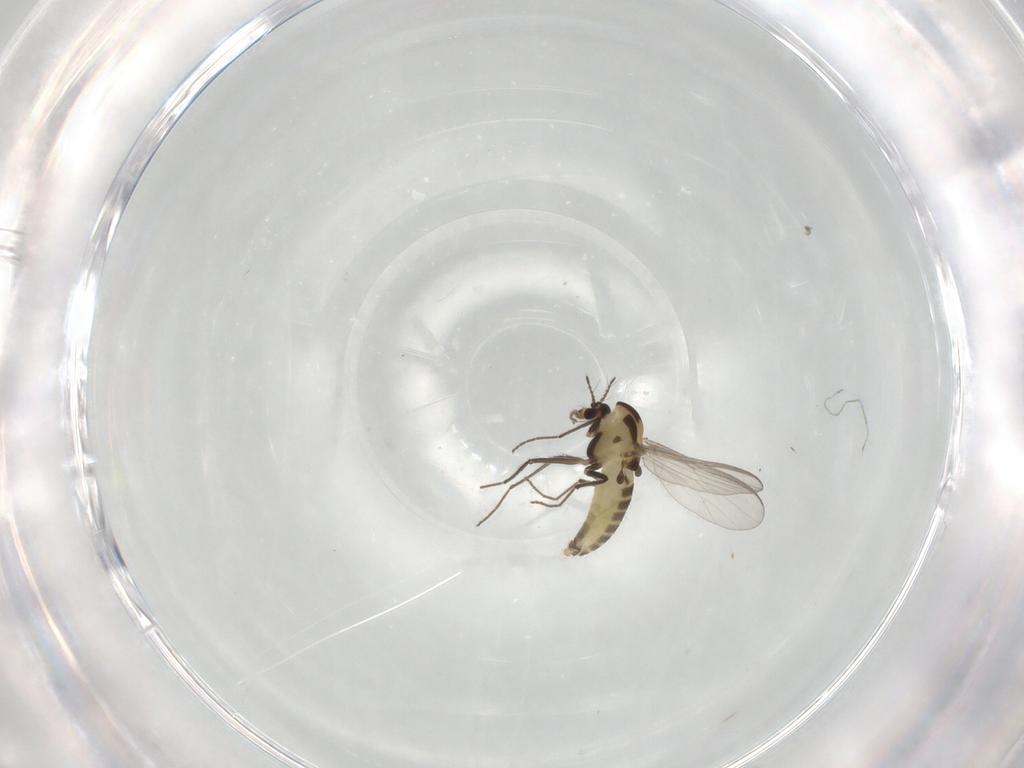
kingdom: Animalia
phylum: Arthropoda
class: Insecta
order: Diptera
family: Chironomidae
